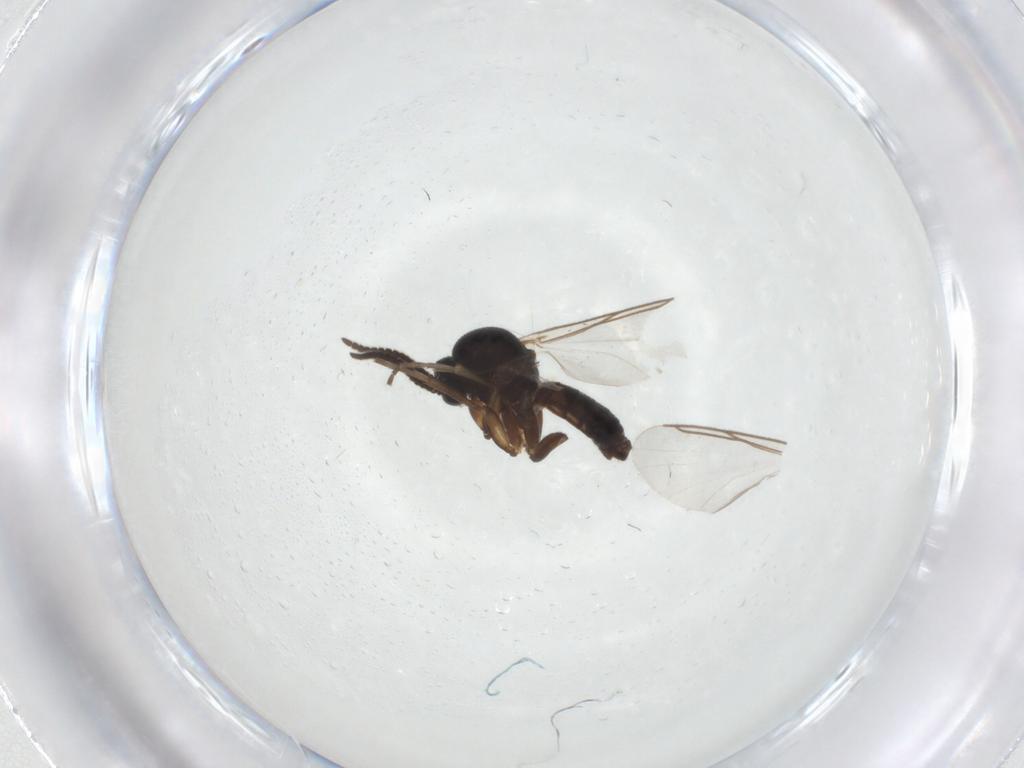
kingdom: Animalia
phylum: Arthropoda
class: Insecta
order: Diptera
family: Mycetophilidae
